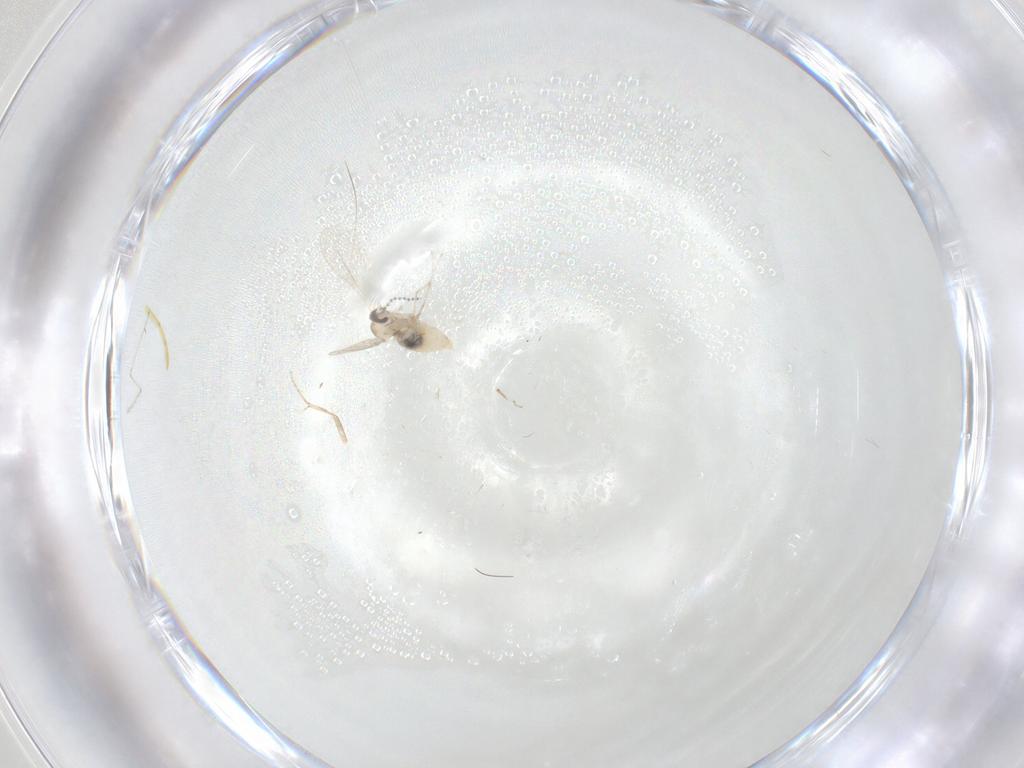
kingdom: Animalia
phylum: Arthropoda
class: Insecta
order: Diptera
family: Cecidomyiidae
